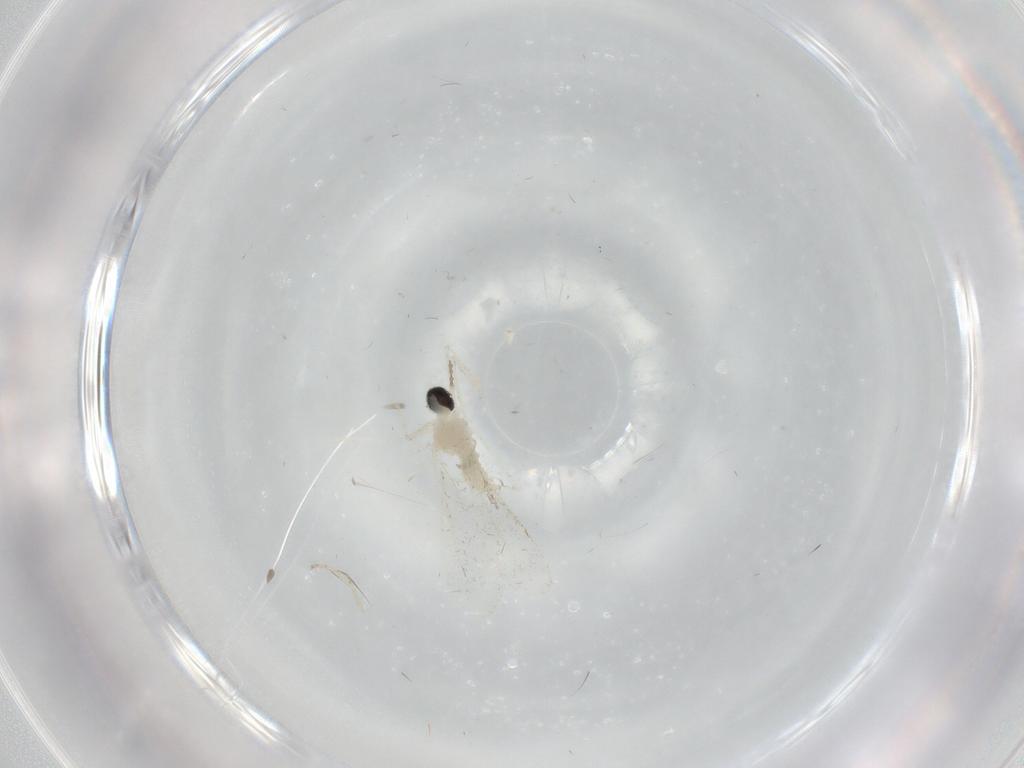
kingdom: Animalia
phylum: Arthropoda
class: Insecta
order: Diptera
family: Cecidomyiidae
